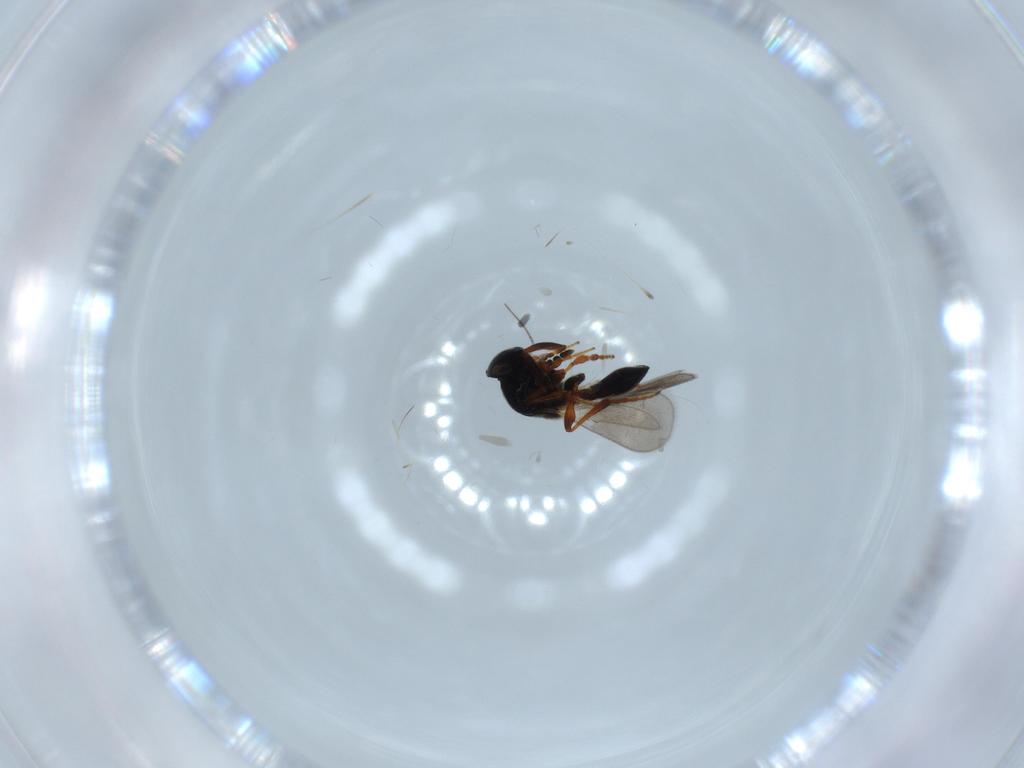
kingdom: Animalia
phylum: Arthropoda
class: Insecta
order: Hymenoptera
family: Platygastridae
